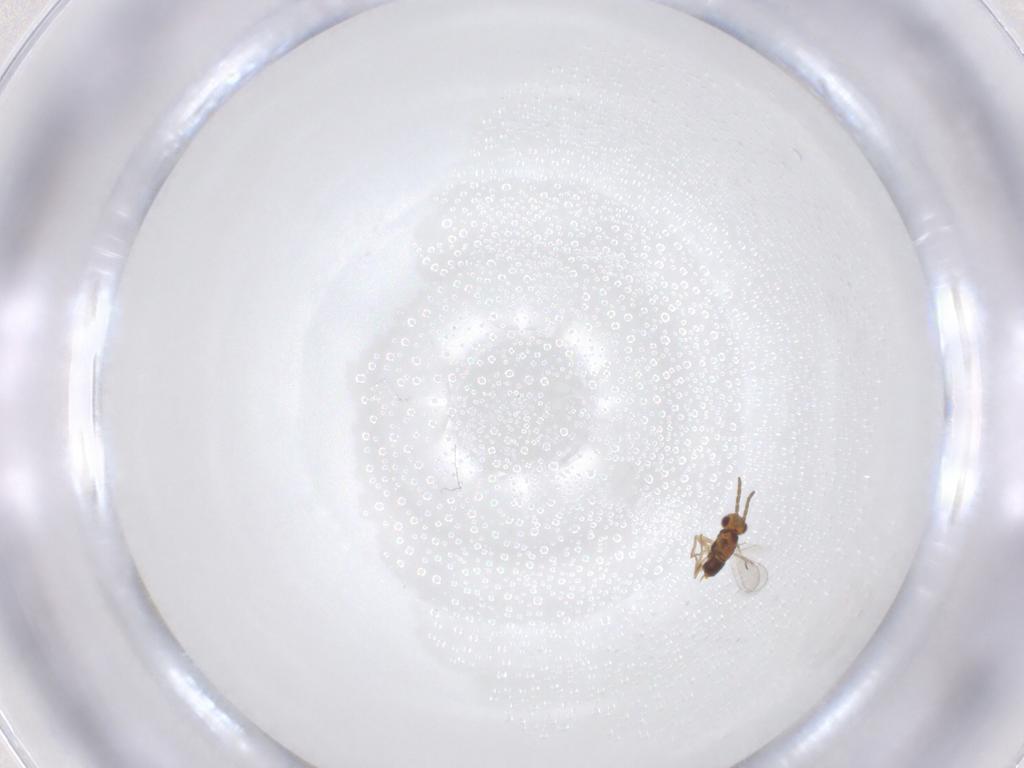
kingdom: Animalia
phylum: Arthropoda
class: Insecta
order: Hymenoptera
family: Aphelinidae
